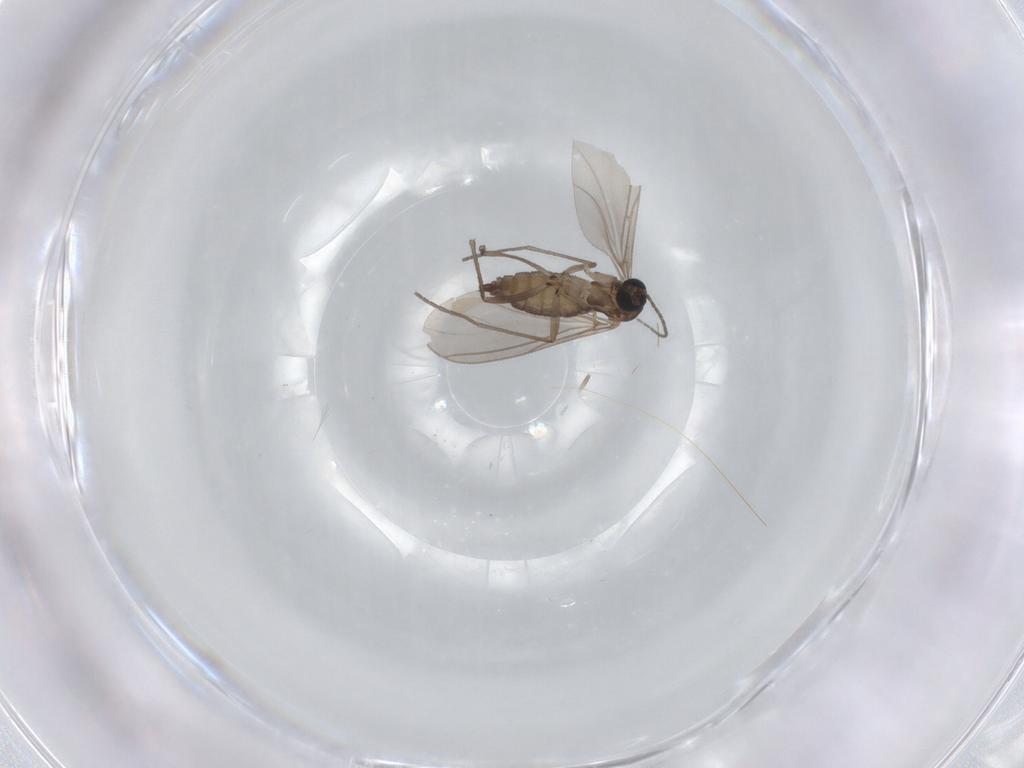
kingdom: Animalia
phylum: Arthropoda
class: Insecta
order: Diptera
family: Sciaridae
